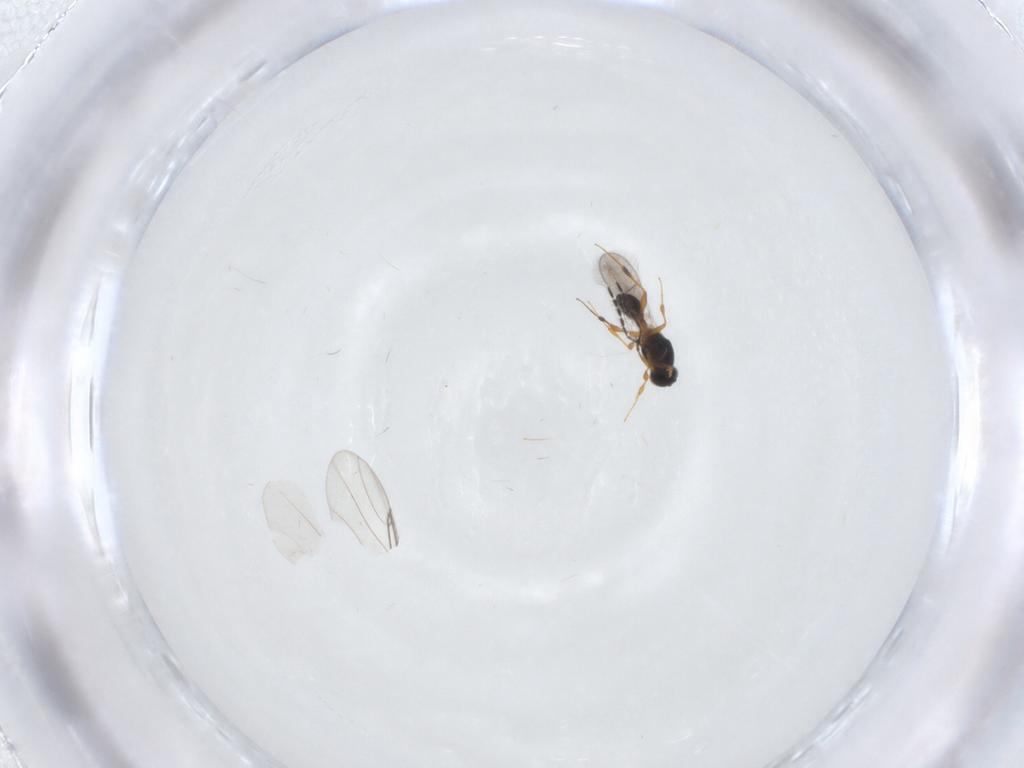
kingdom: Animalia
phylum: Arthropoda
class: Insecta
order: Hymenoptera
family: Platygastridae
